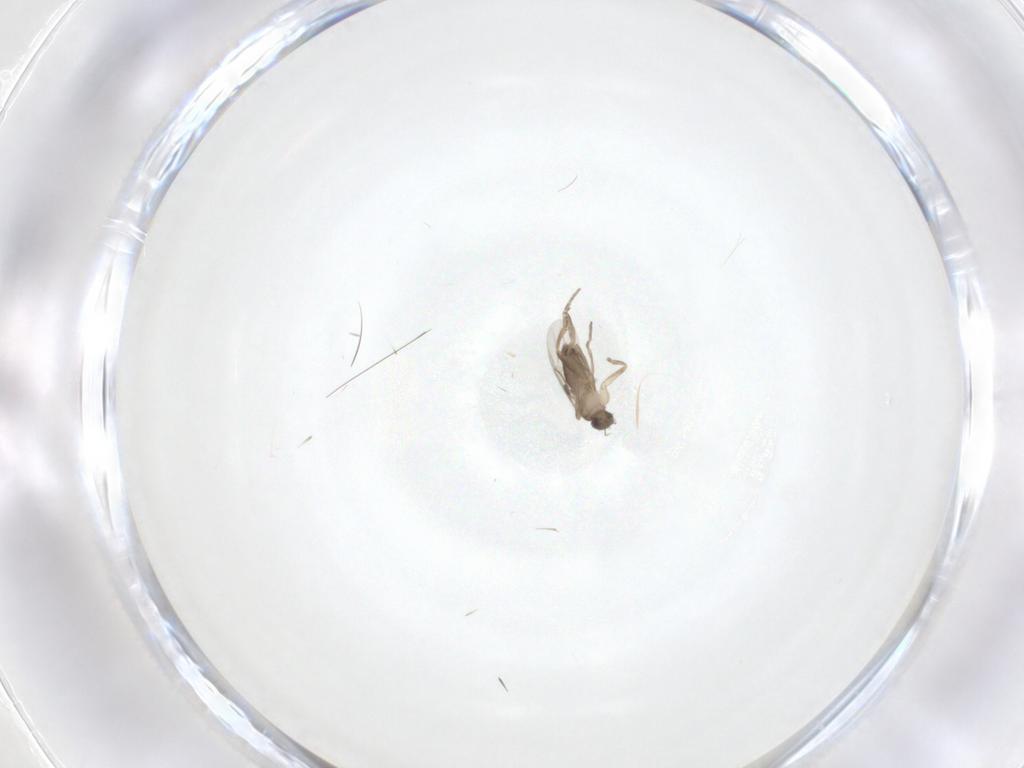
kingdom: Animalia
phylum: Arthropoda
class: Insecta
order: Diptera
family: Phoridae
